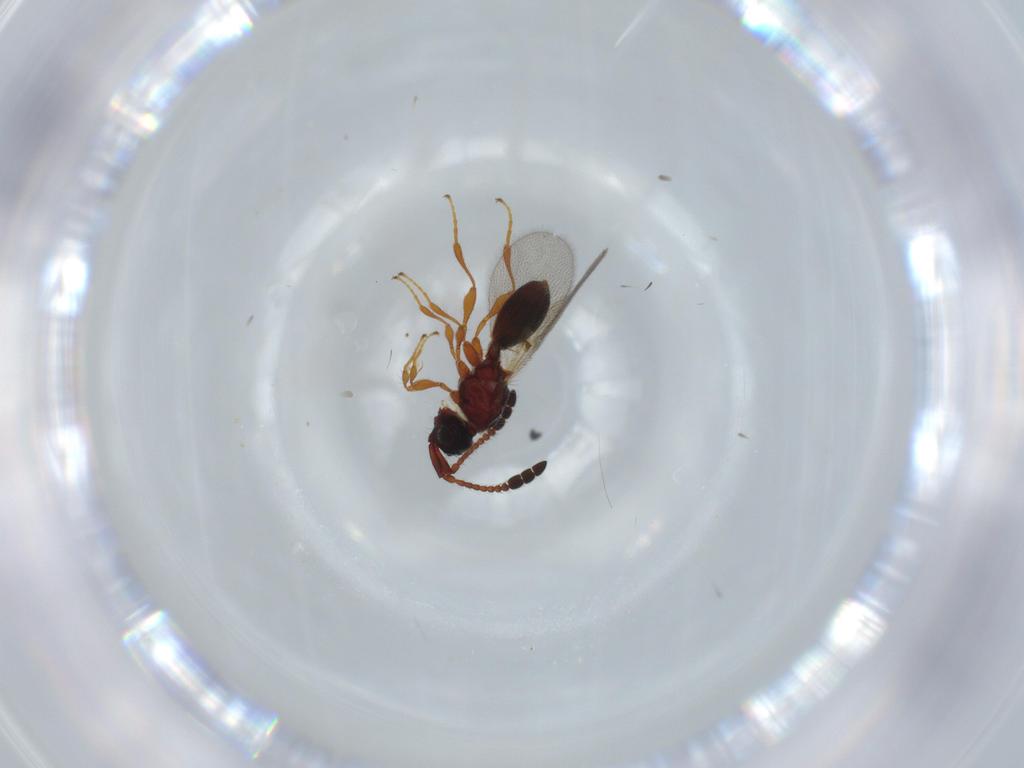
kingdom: Animalia
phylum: Arthropoda
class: Insecta
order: Hymenoptera
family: Diapriidae
